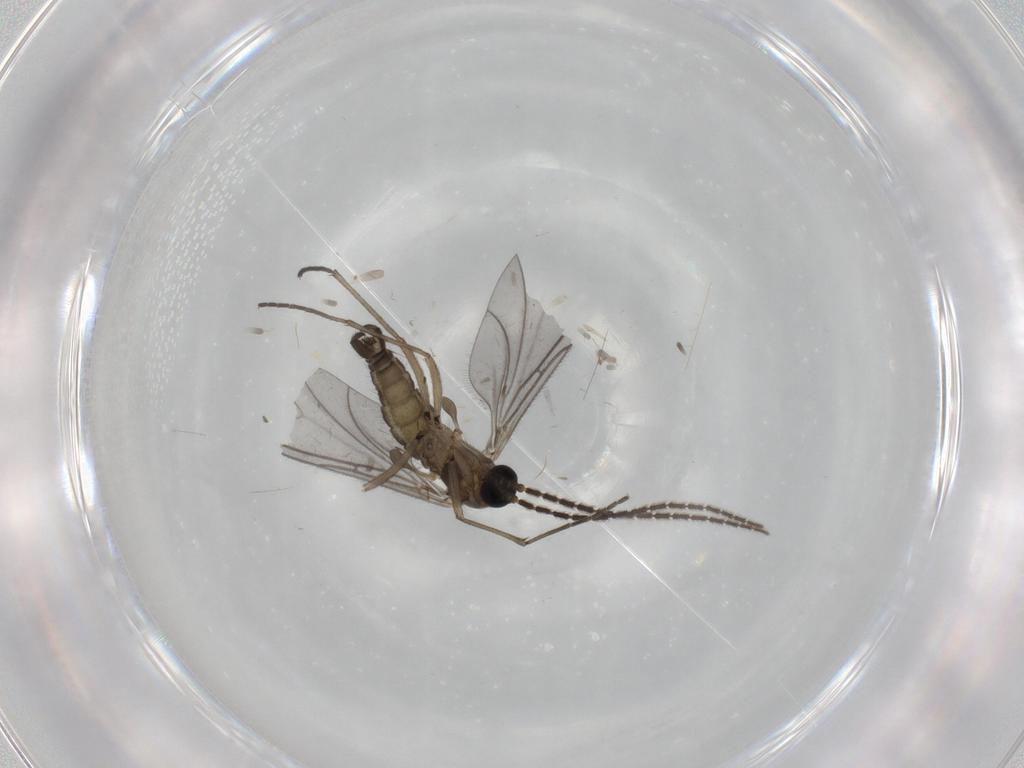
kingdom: Animalia
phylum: Arthropoda
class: Insecta
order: Diptera
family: Sciaridae
